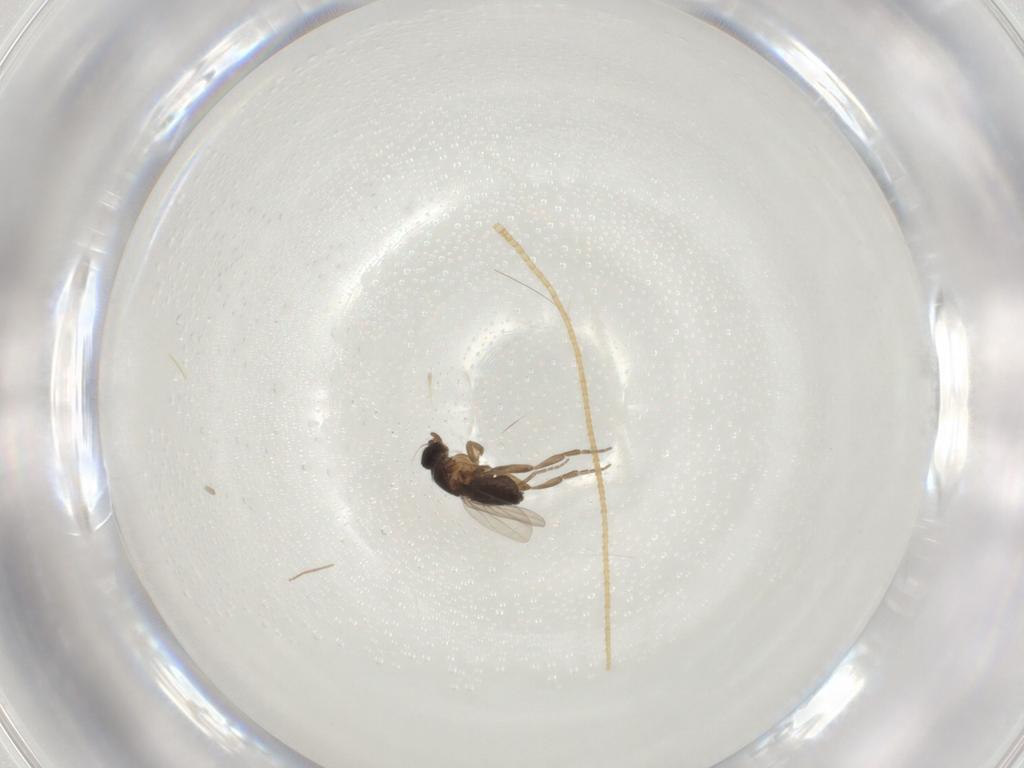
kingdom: Animalia
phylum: Arthropoda
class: Insecta
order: Diptera
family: Phoridae
